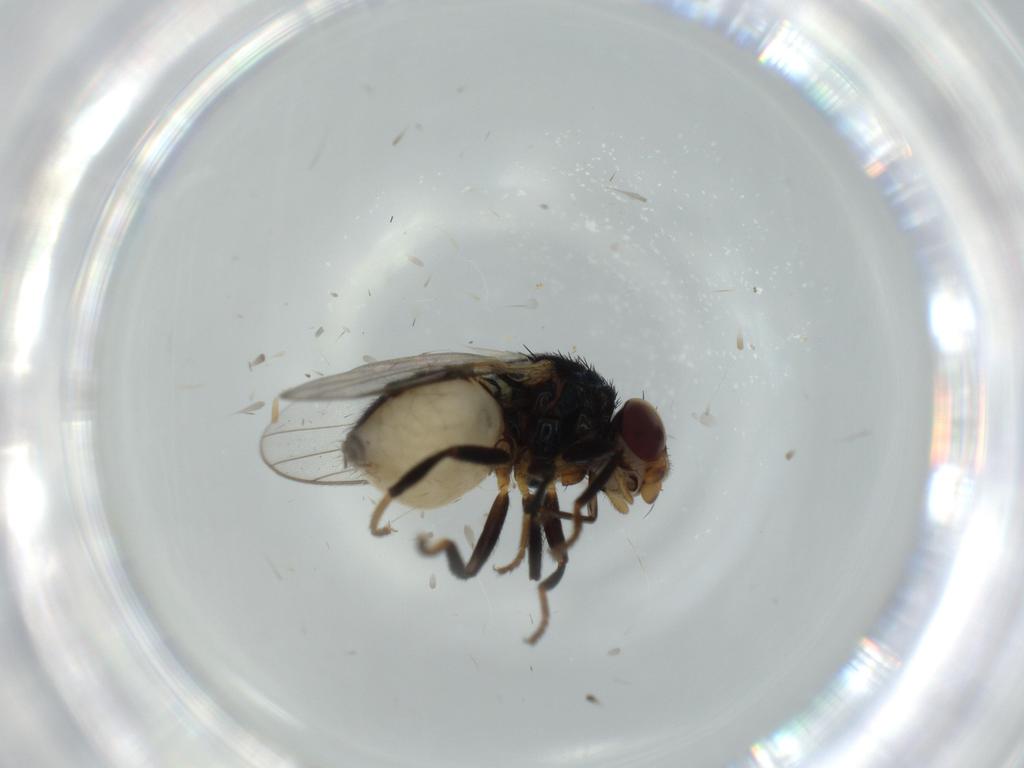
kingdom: Animalia
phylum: Arthropoda
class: Insecta
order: Diptera
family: Chloropidae
